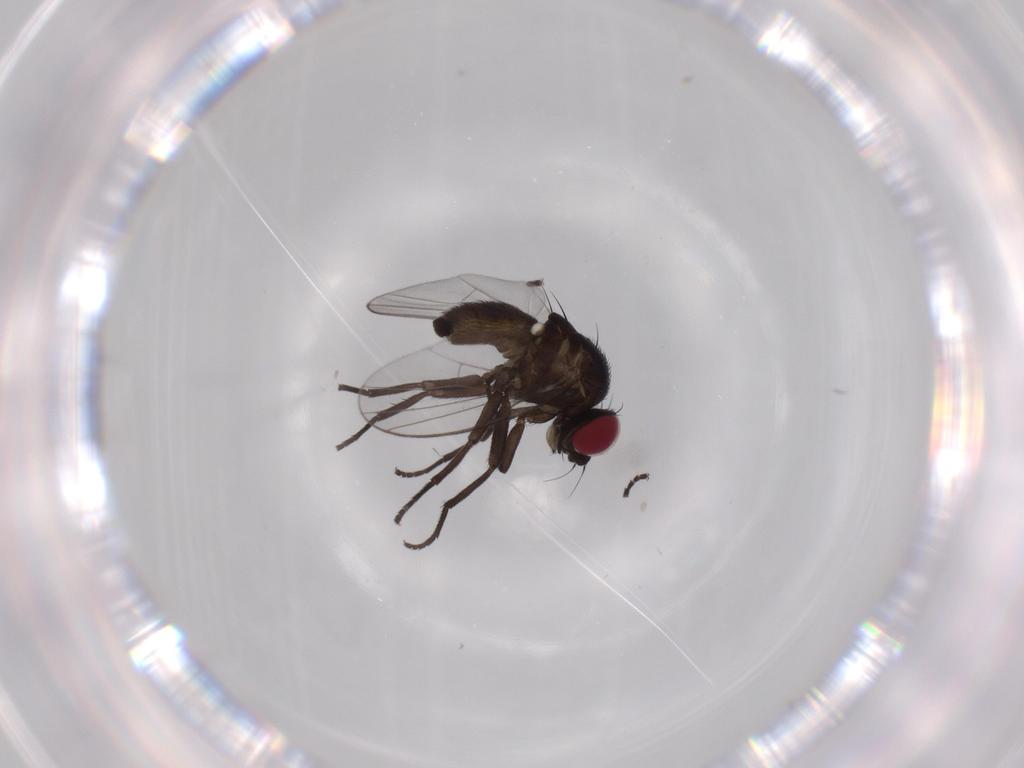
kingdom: Animalia
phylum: Arthropoda
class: Insecta
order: Diptera
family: Agromyzidae
